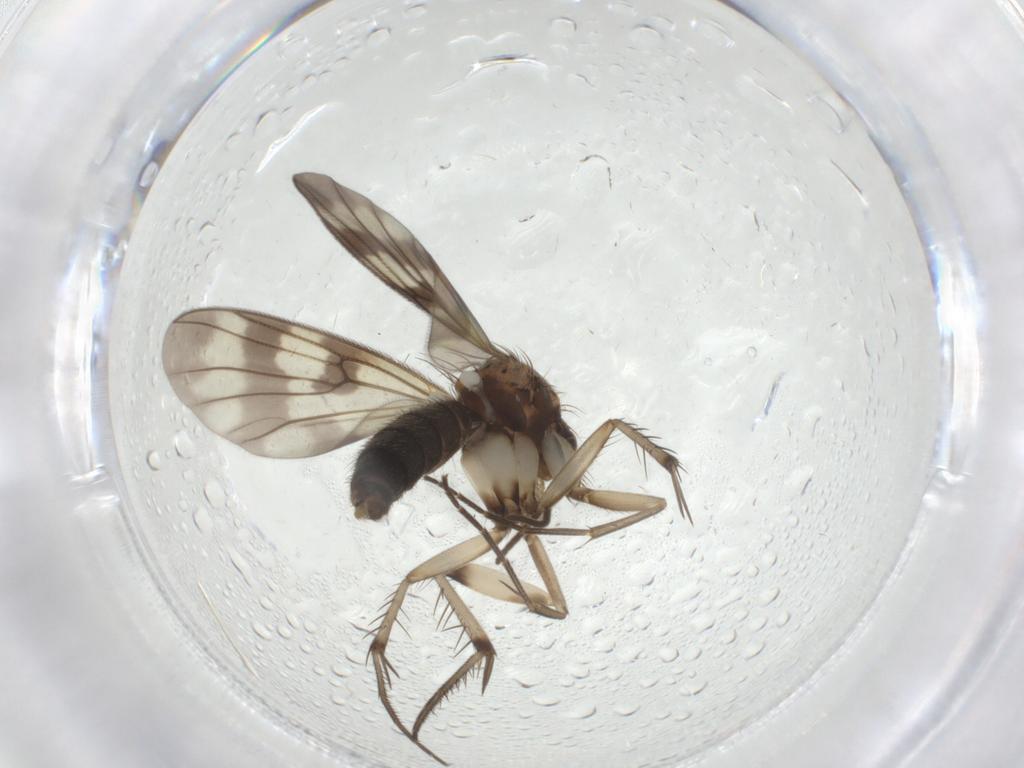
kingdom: Animalia
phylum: Arthropoda
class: Insecta
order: Diptera
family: Mycetophilidae
